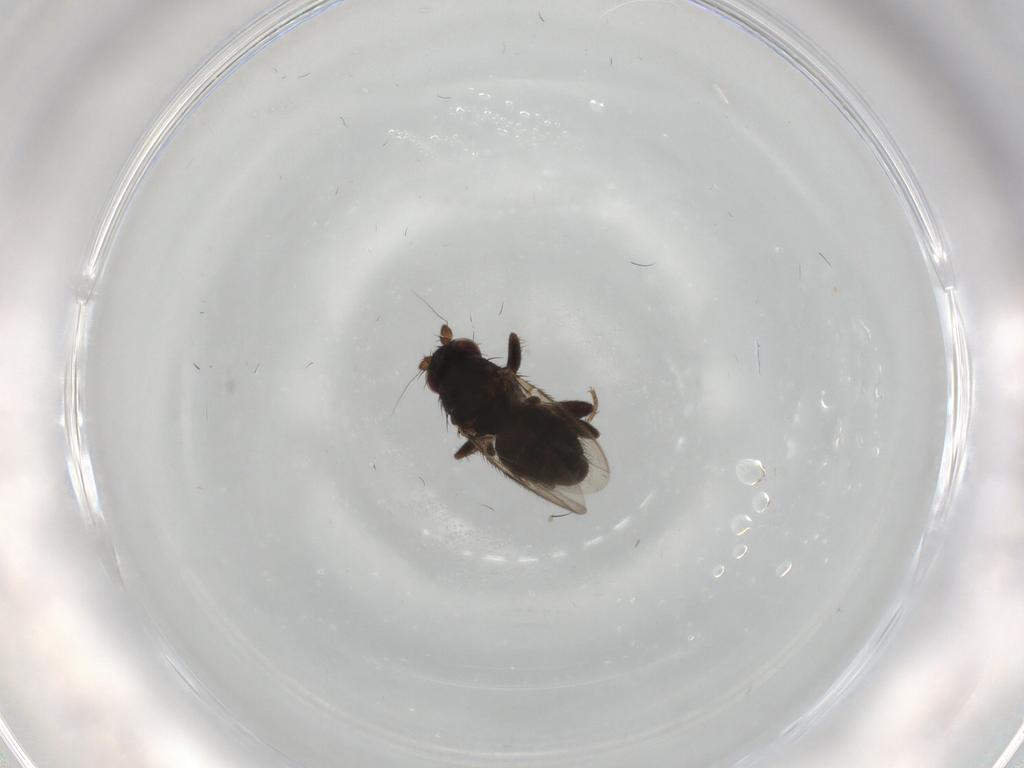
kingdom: Animalia
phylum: Arthropoda
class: Insecta
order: Diptera
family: Sphaeroceridae
